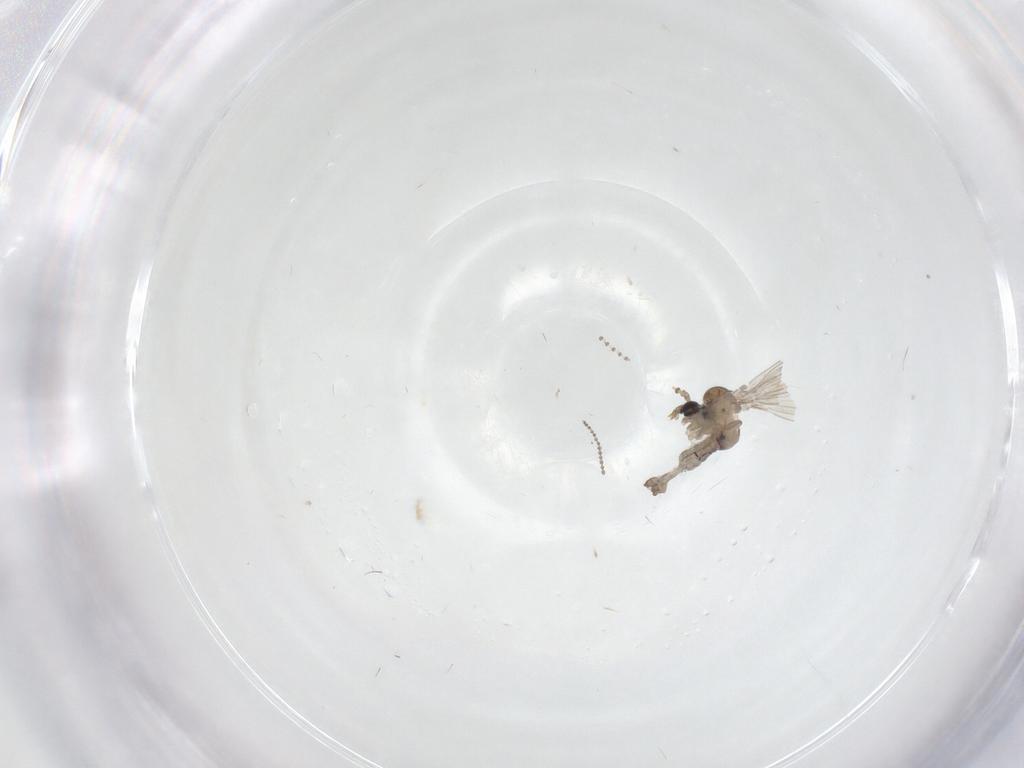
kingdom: Animalia
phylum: Arthropoda
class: Insecta
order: Diptera
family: Psychodidae
